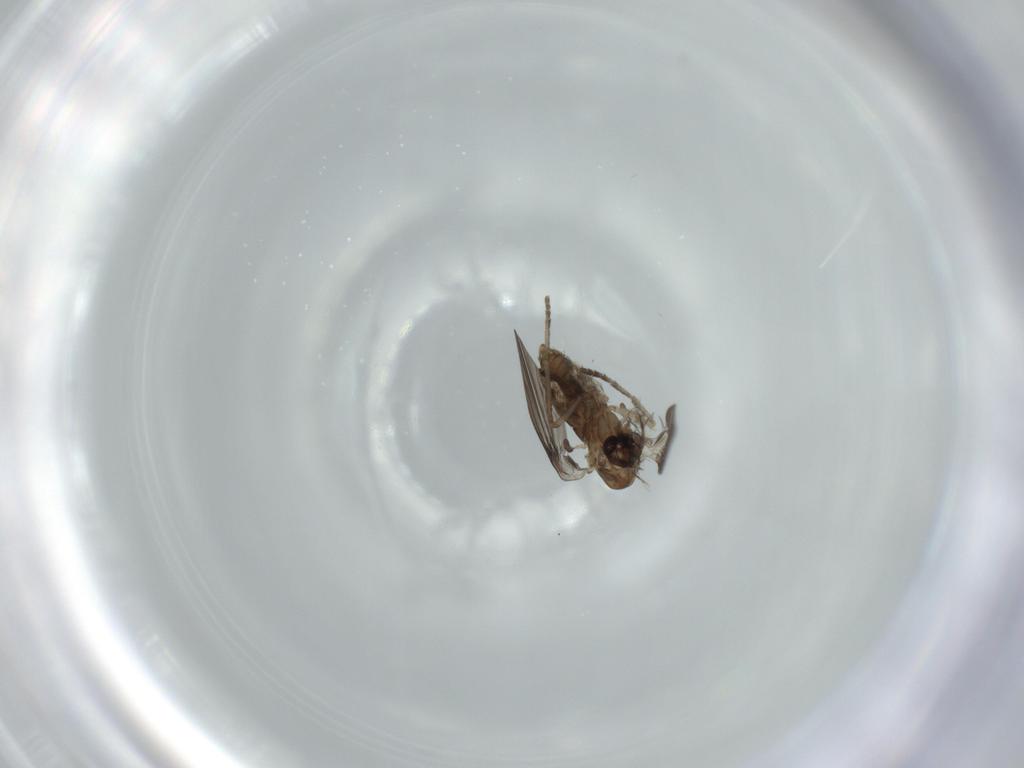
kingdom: Animalia
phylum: Arthropoda
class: Insecta
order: Diptera
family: Psychodidae
